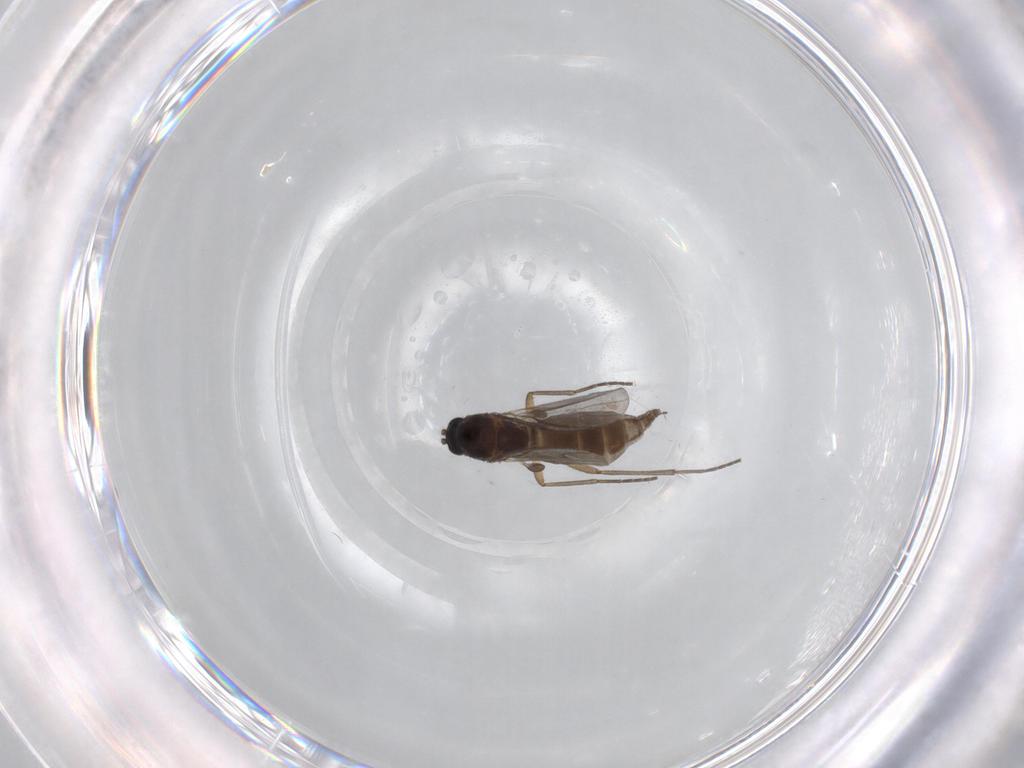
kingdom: Animalia
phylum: Arthropoda
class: Insecta
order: Diptera
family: Sciaridae
